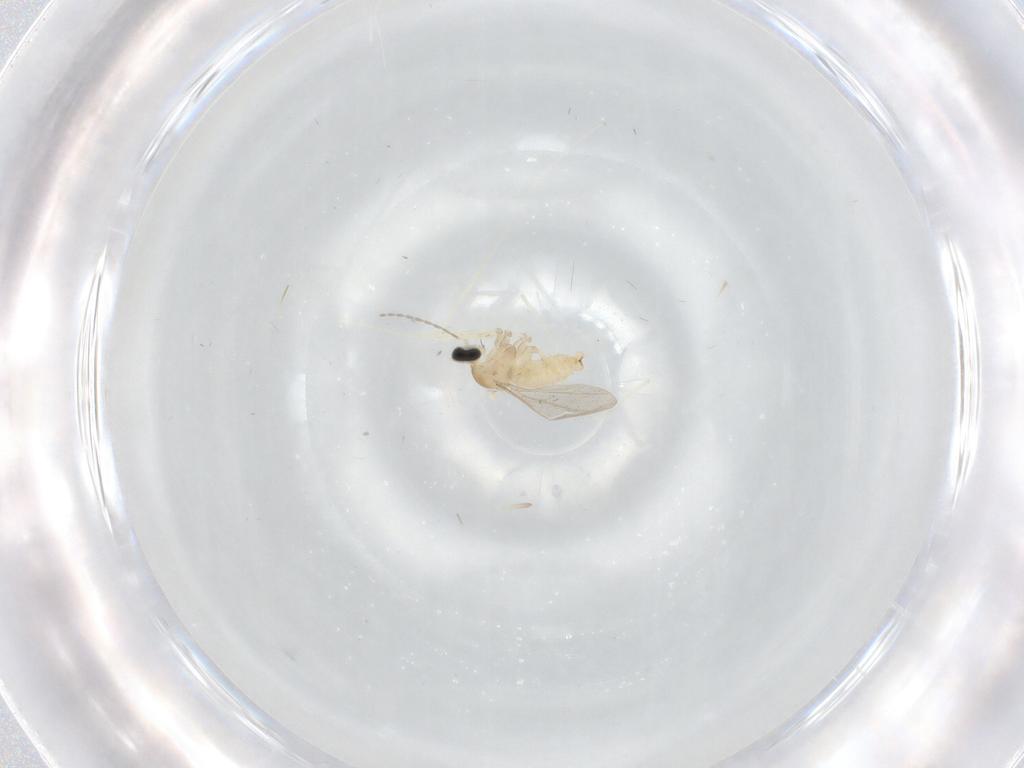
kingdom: Animalia
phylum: Arthropoda
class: Insecta
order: Diptera
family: Cecidomyiidae
